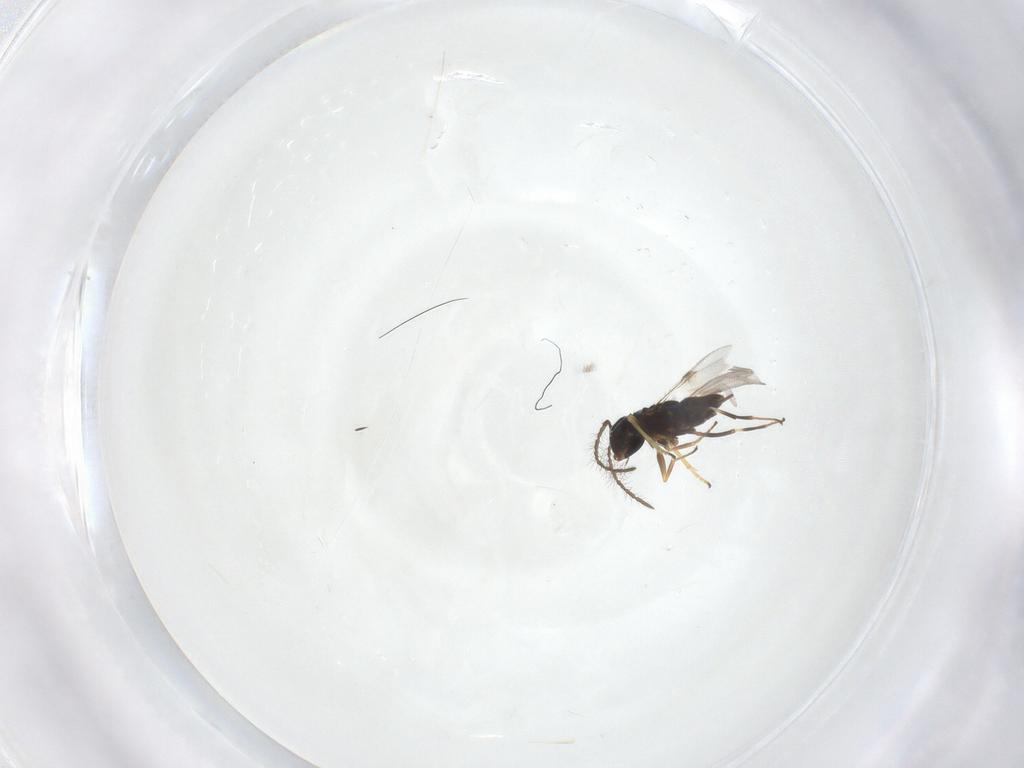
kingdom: Animalia
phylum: Arthropoda
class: Insecta
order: Hymenoptera
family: Encyrtidae
